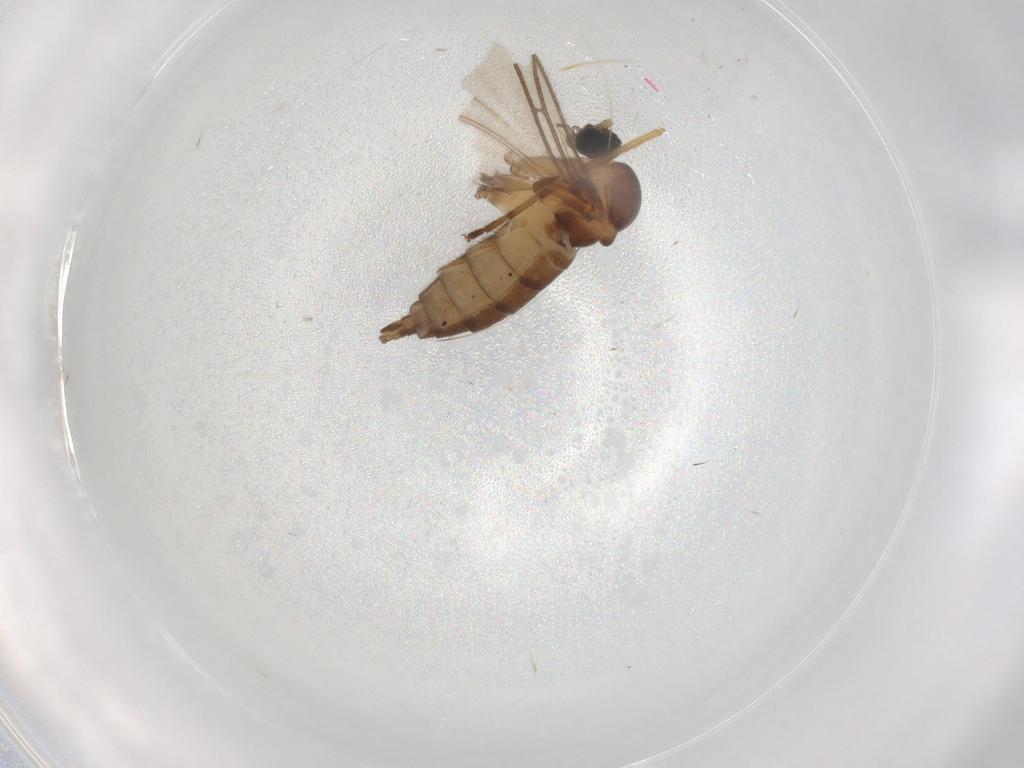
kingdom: Animalia
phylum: Arthropoda
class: Insecta
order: Diptera
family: Sciaridae
